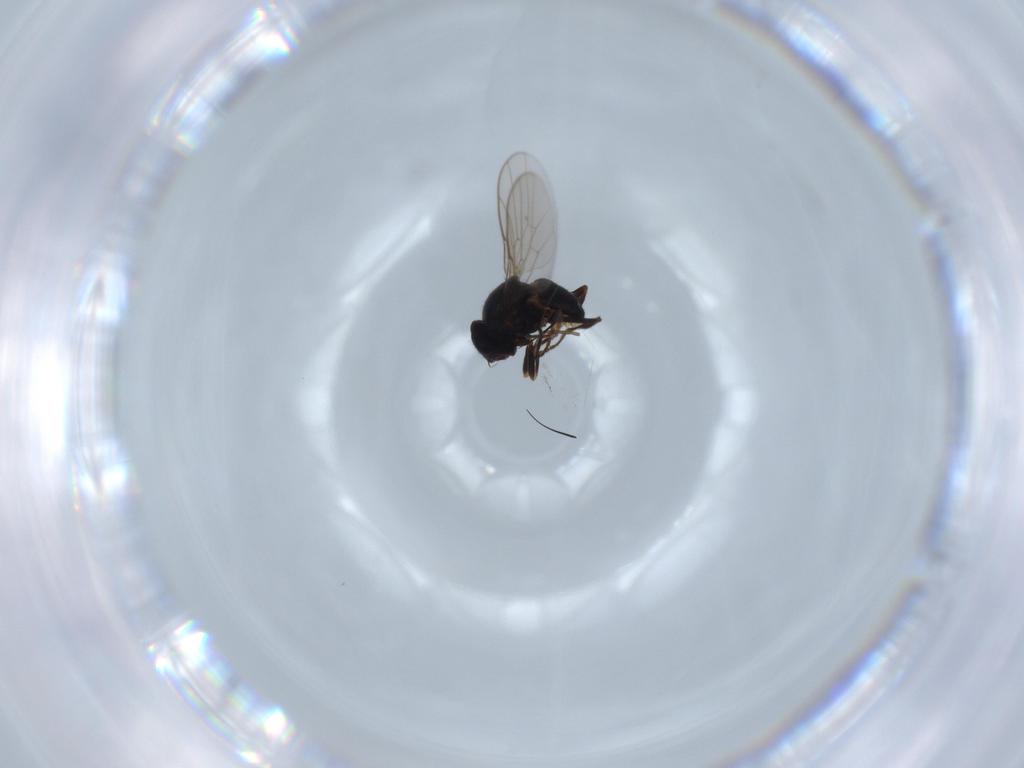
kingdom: Animalia
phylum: Arthropoda
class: Insecta
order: Diptera
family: Chloropidae
